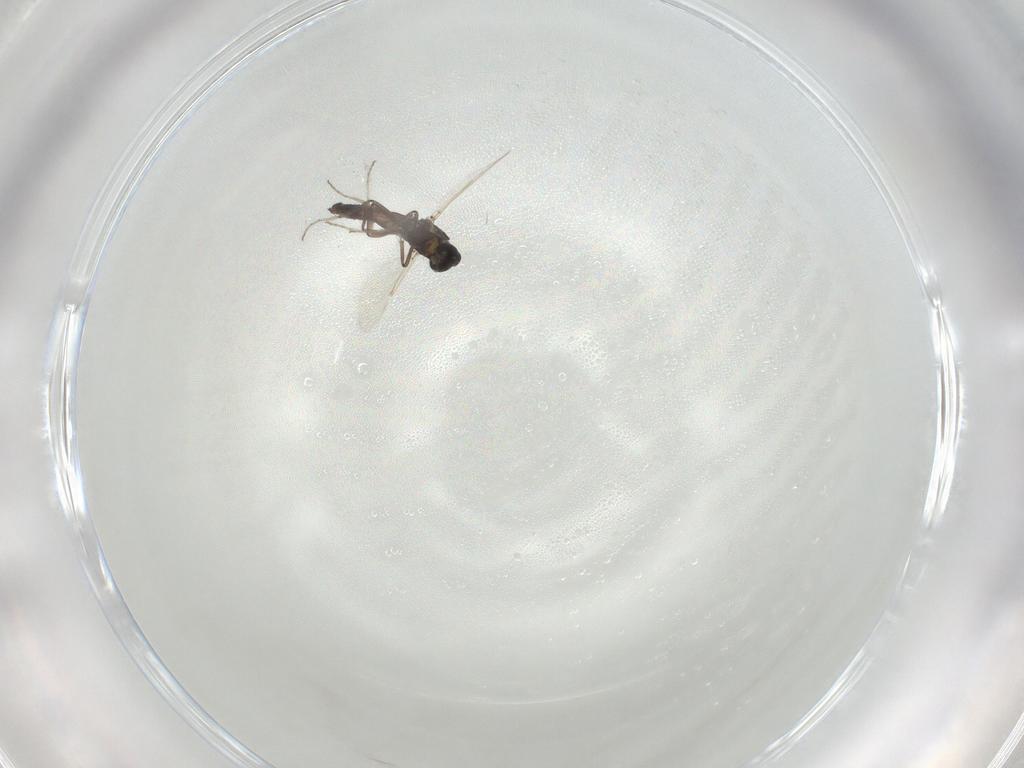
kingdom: Animalia
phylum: Arthropoda
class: Insecta
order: Diptera
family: Ceratopogonidae
